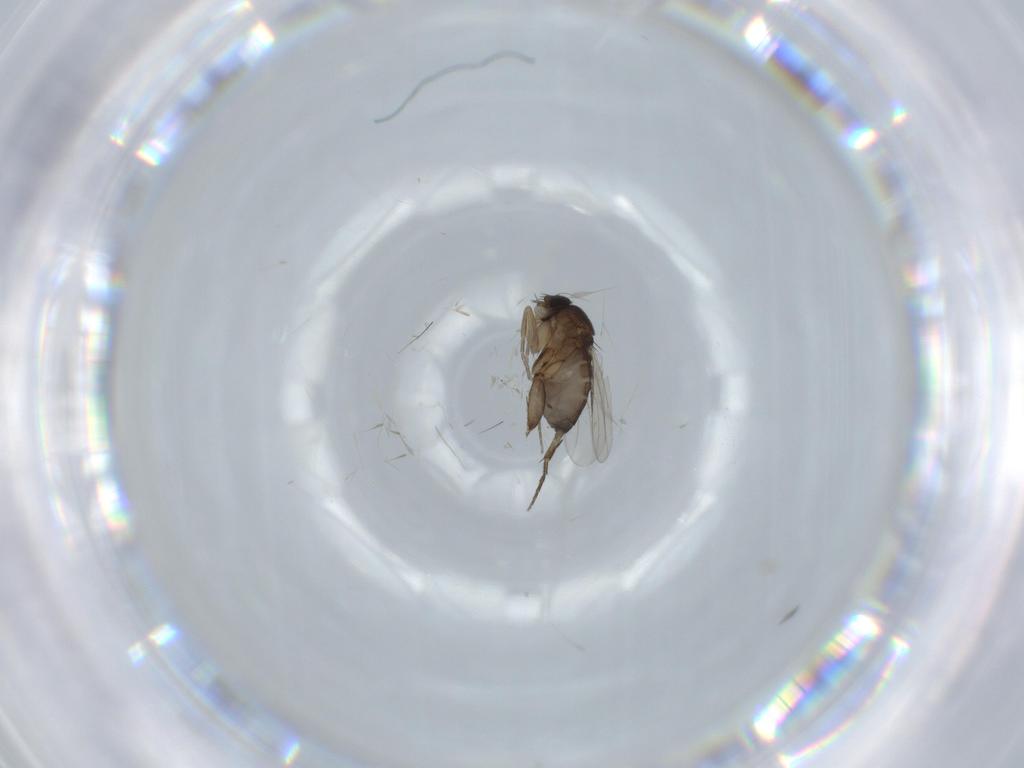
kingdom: Animalia
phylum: Arthropoda
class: Insecta
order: Diptera
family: Phoridae
